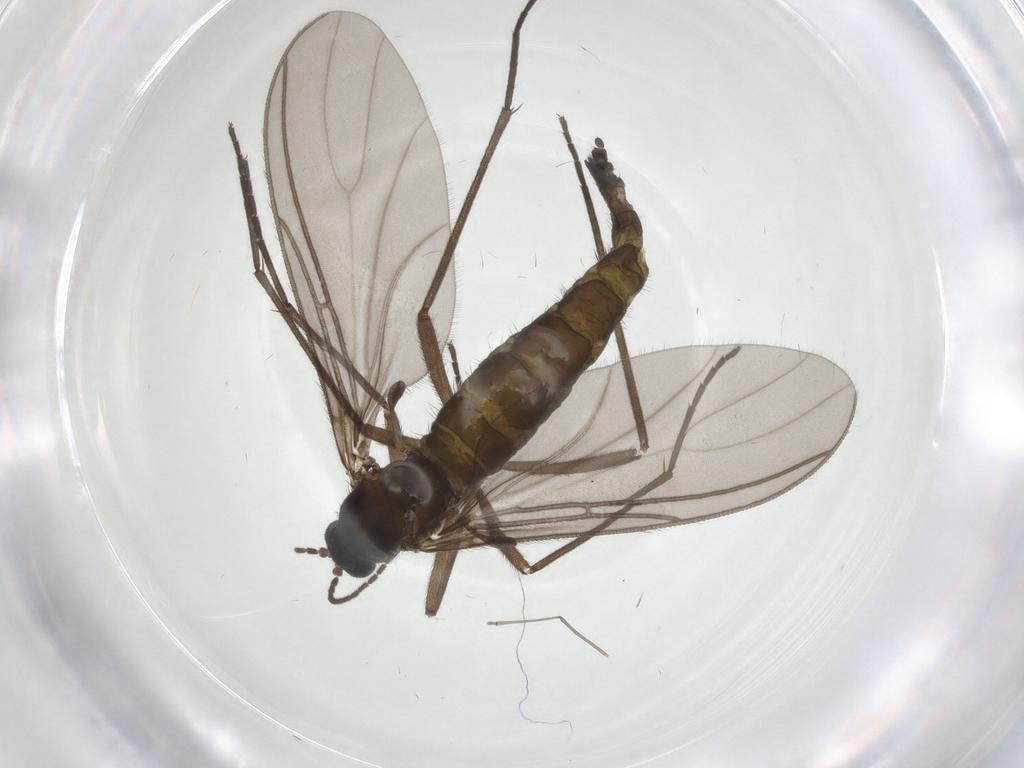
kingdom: Animalia
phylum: Arthropoda
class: Insecta
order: Diptera
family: Sciaridae
